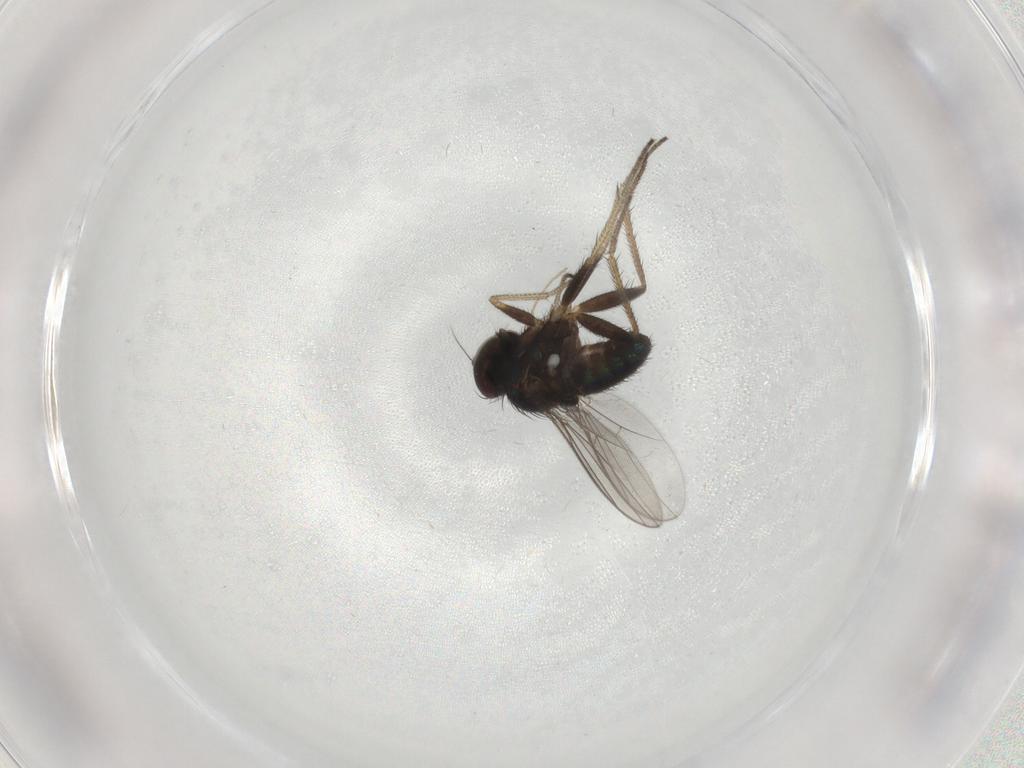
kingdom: Animalia
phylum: Arthropoda
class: Insecta
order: Diptera
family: Dolichopodidae
